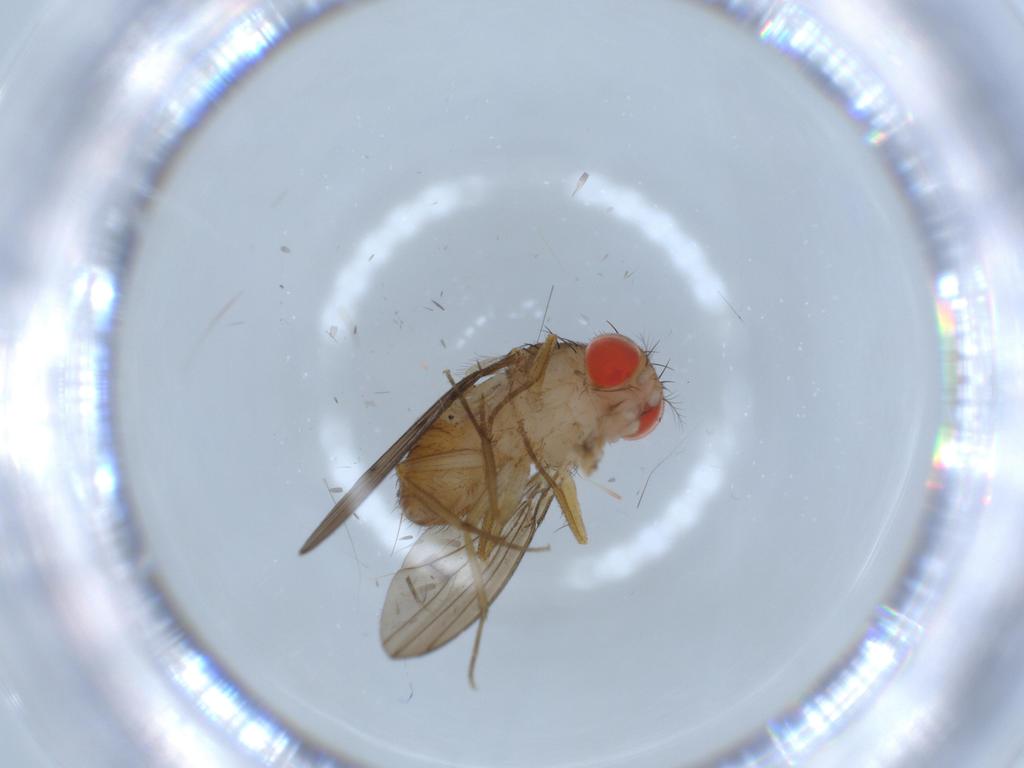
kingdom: Animalia
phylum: Arthropoda
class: Insecta
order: Diptera
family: Drosophilidae
